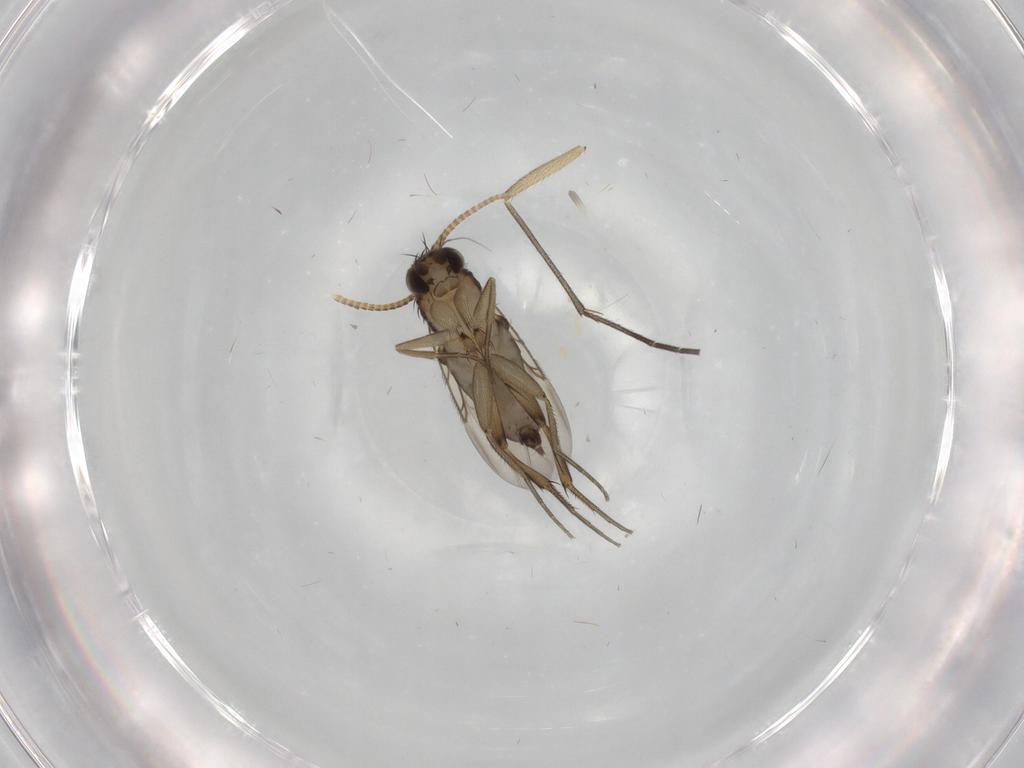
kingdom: Animalia
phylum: Arthropoda
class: Insecta
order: Diptera
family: Phoridae
